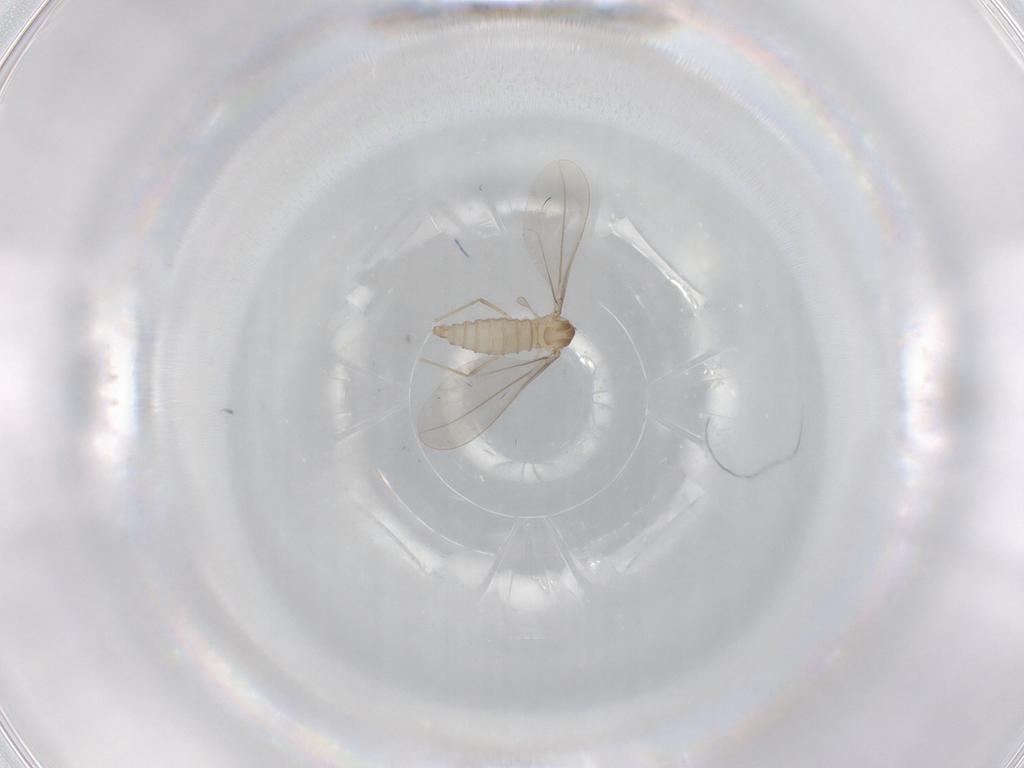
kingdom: Animalia
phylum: Arthropoda
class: Insecta
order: Diptera
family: Cecidomyiidae
